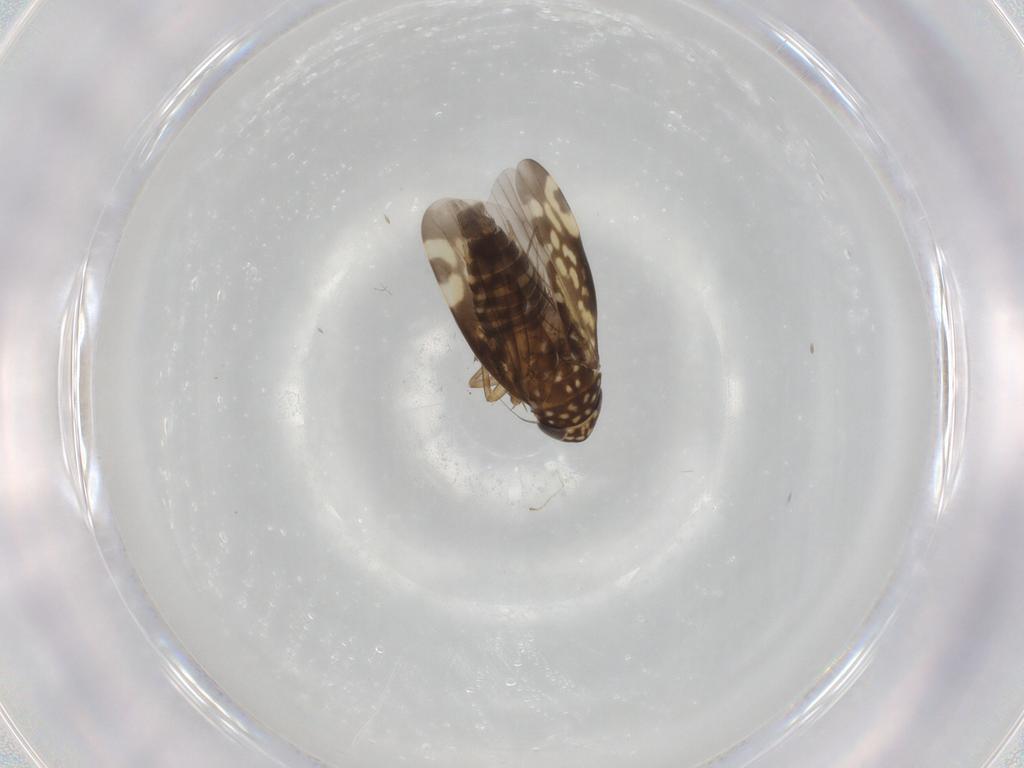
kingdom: Animalia
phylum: Arthropoda
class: Insecta
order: Hemiptera
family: Cicadellidae
